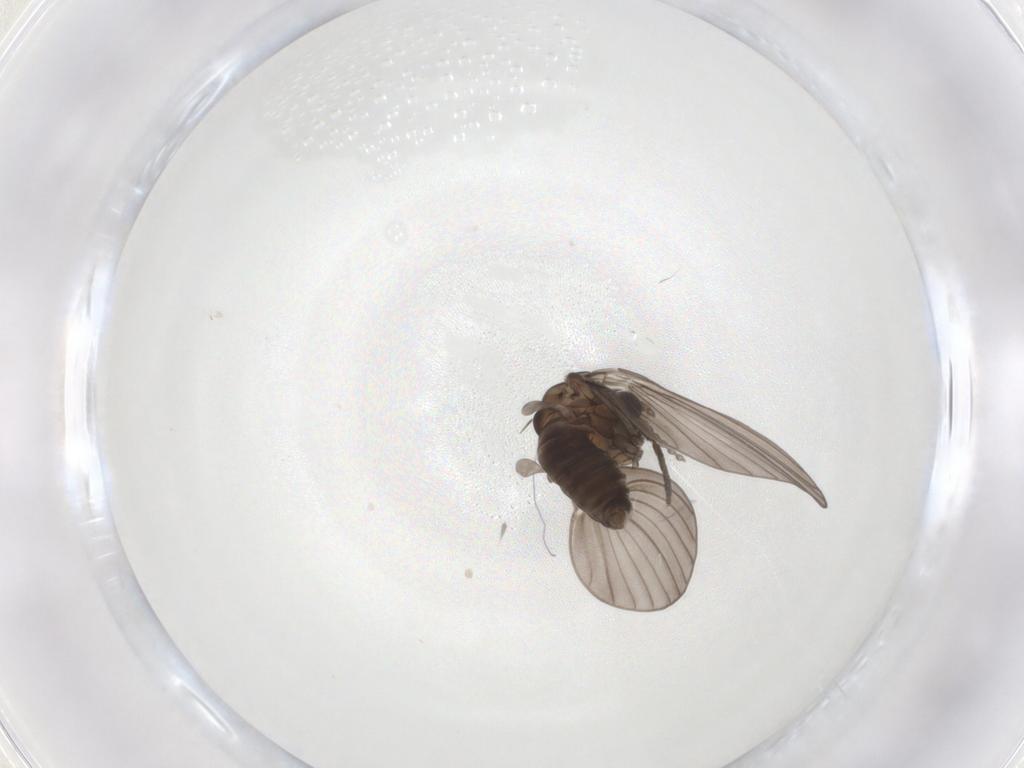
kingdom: Animalia
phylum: Arthropoda
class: Insecta
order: Diptera
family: Psychodidae
